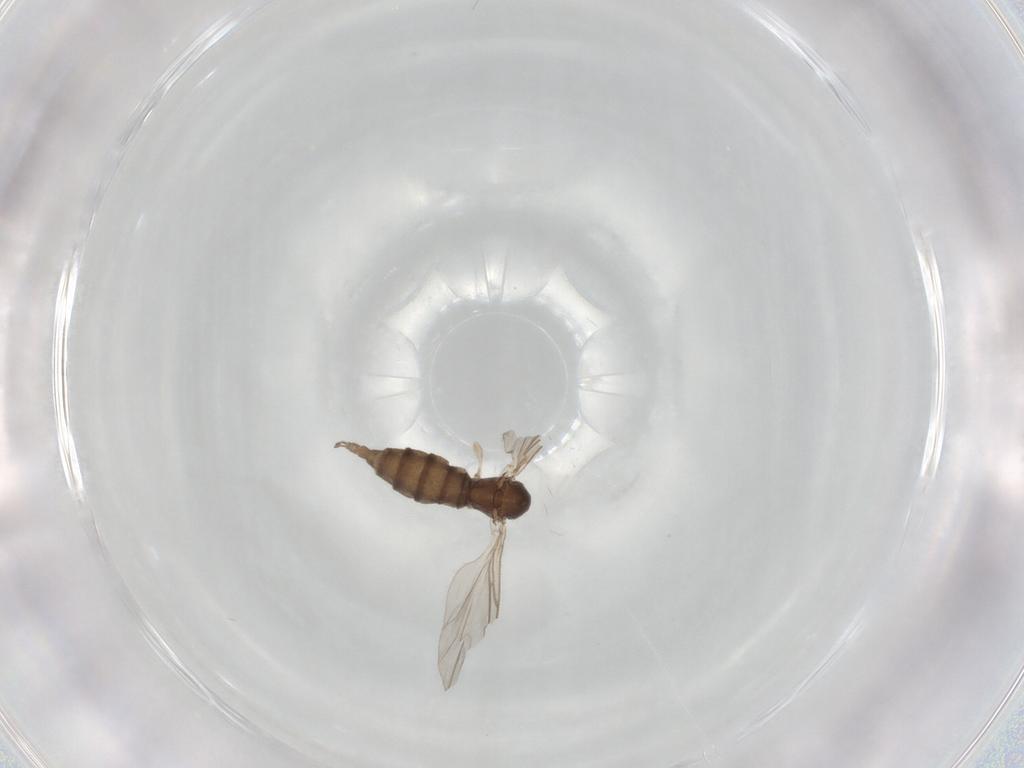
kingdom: Animalia
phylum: Arthropoda
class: Insecta
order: Diptera
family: Sciaridae
